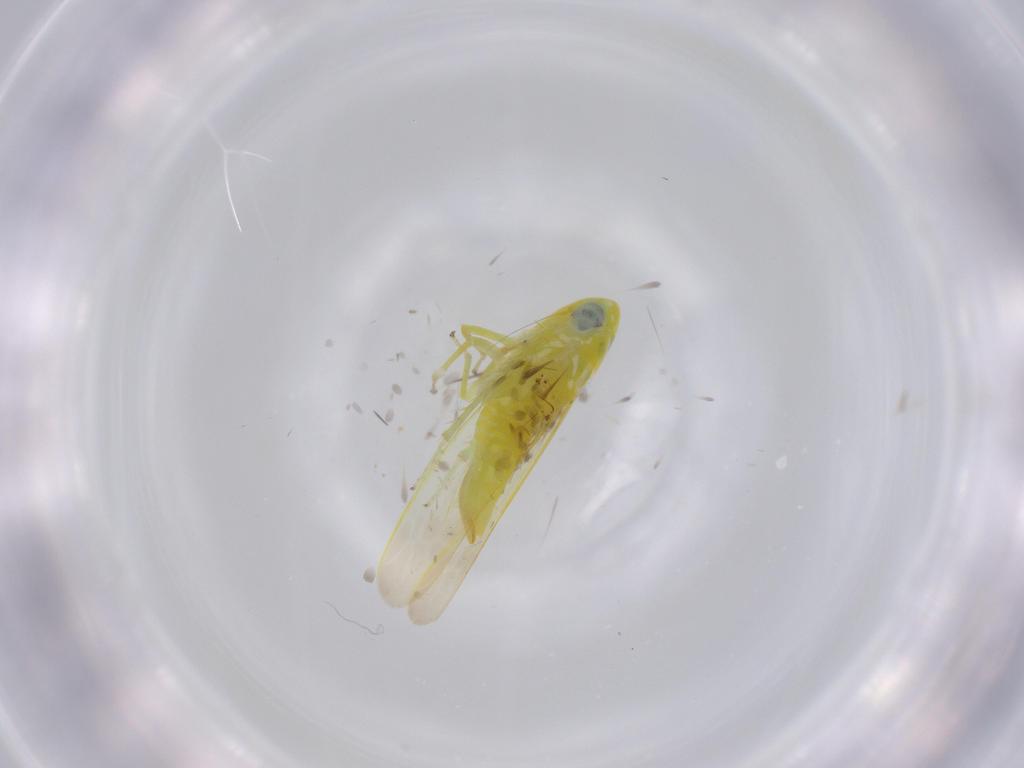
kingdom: Animalia
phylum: Arthropoda
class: Insecta
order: Hemiptera
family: Cicadellidae
